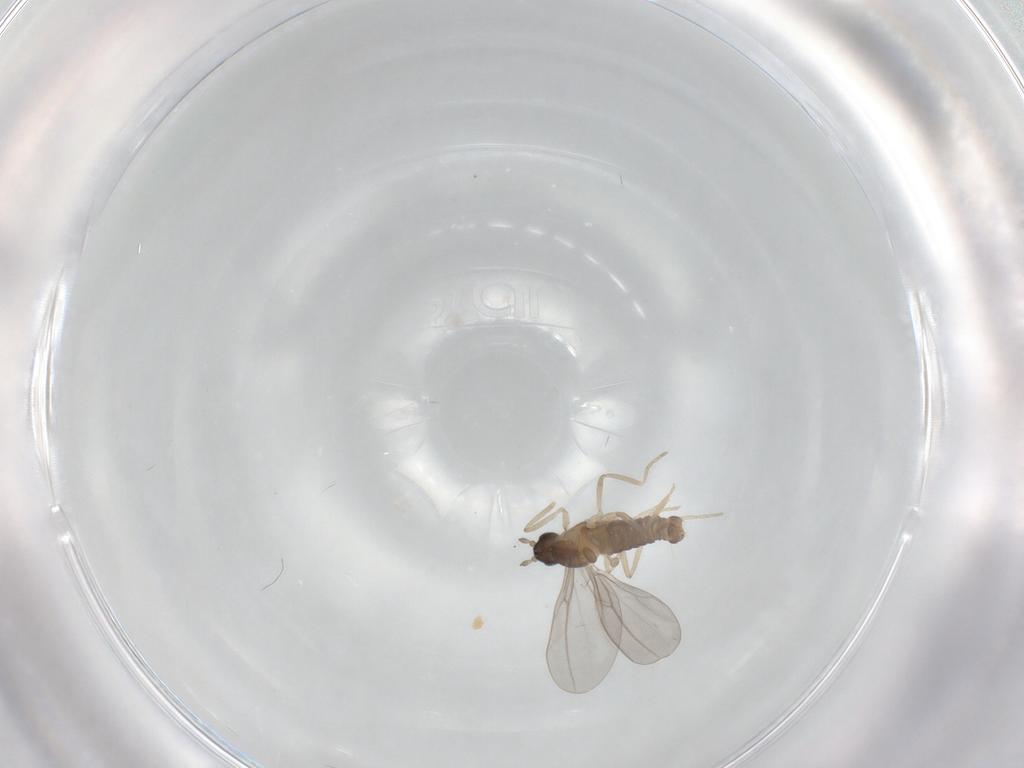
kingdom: Animalia
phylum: Arthropoda
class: Insecta
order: Diptera
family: Cecidomyiidae
